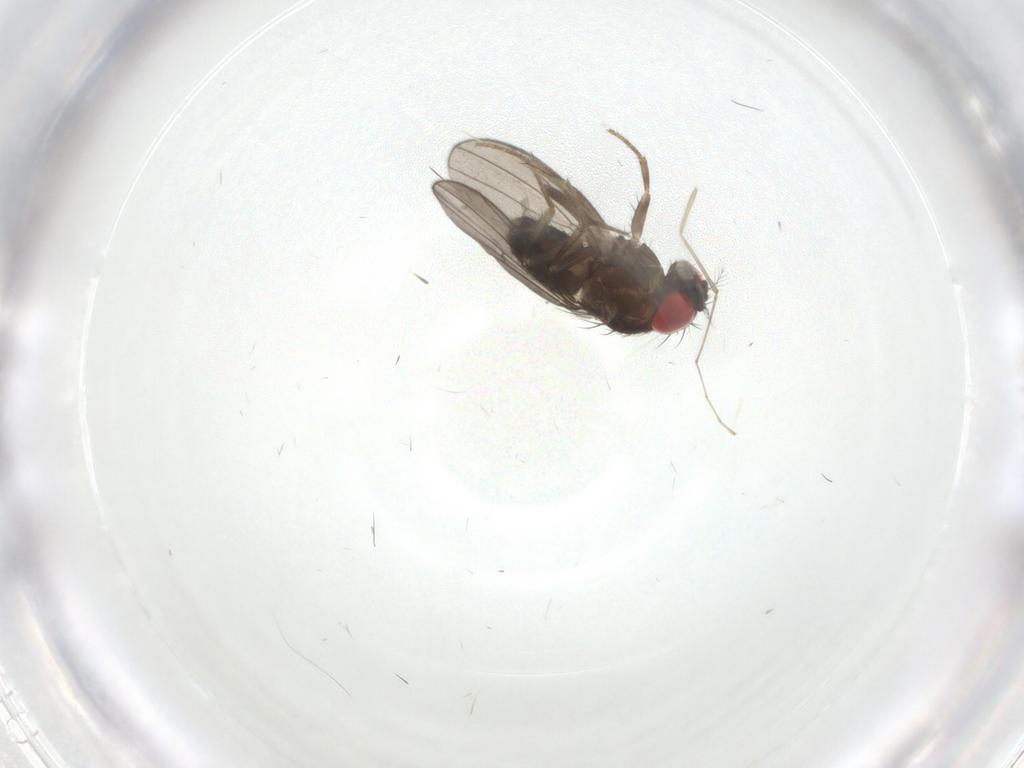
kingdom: Animalia
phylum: Arthropoda
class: Insecta
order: Diptera
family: Drosophilidae
